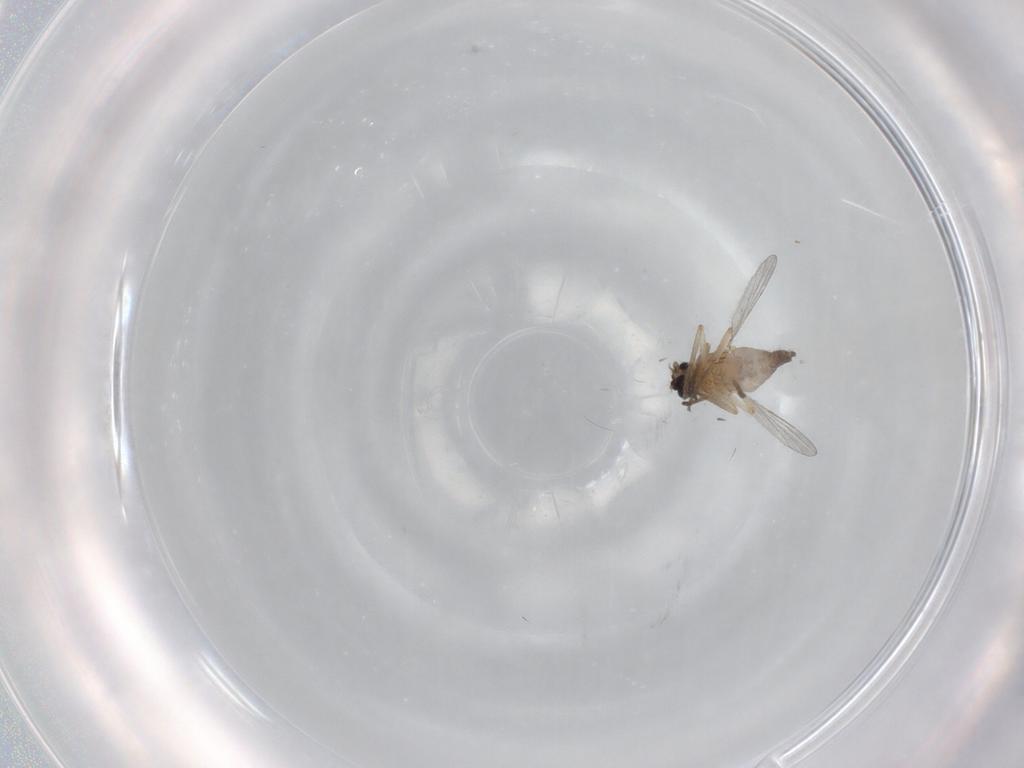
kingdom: Animalia
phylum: Arthropoda
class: Insecta
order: Diptera
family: Ceratopogonidae
